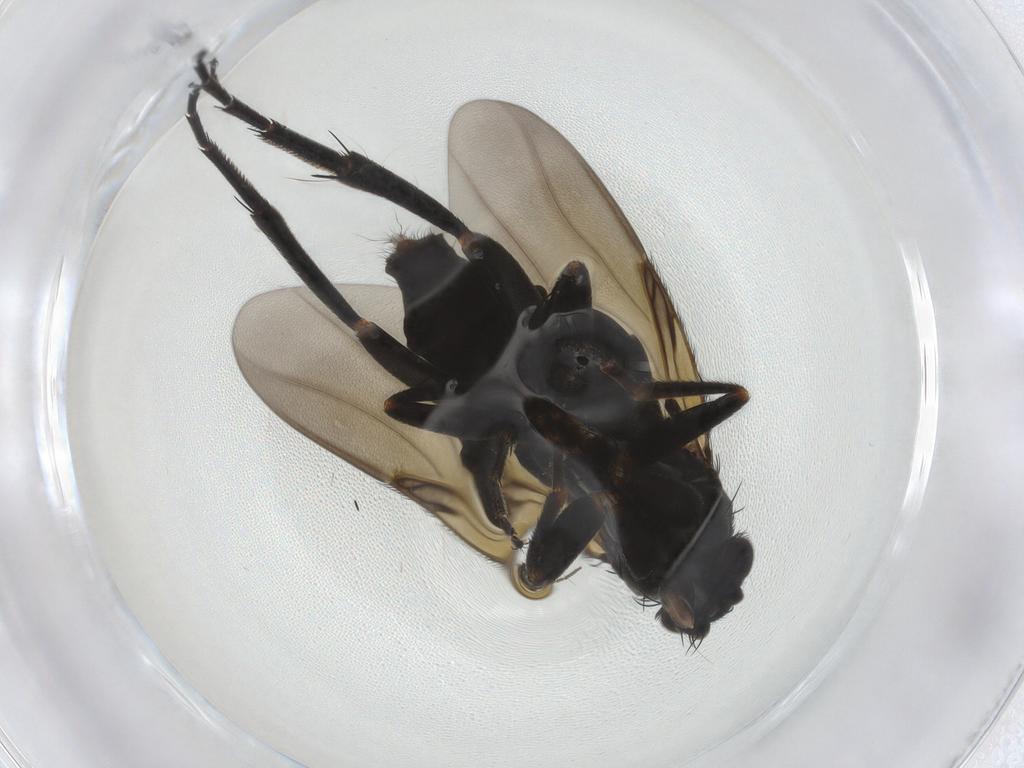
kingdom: Animalia
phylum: Arthropoda
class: Insecta
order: Diptera
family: Phoridae
